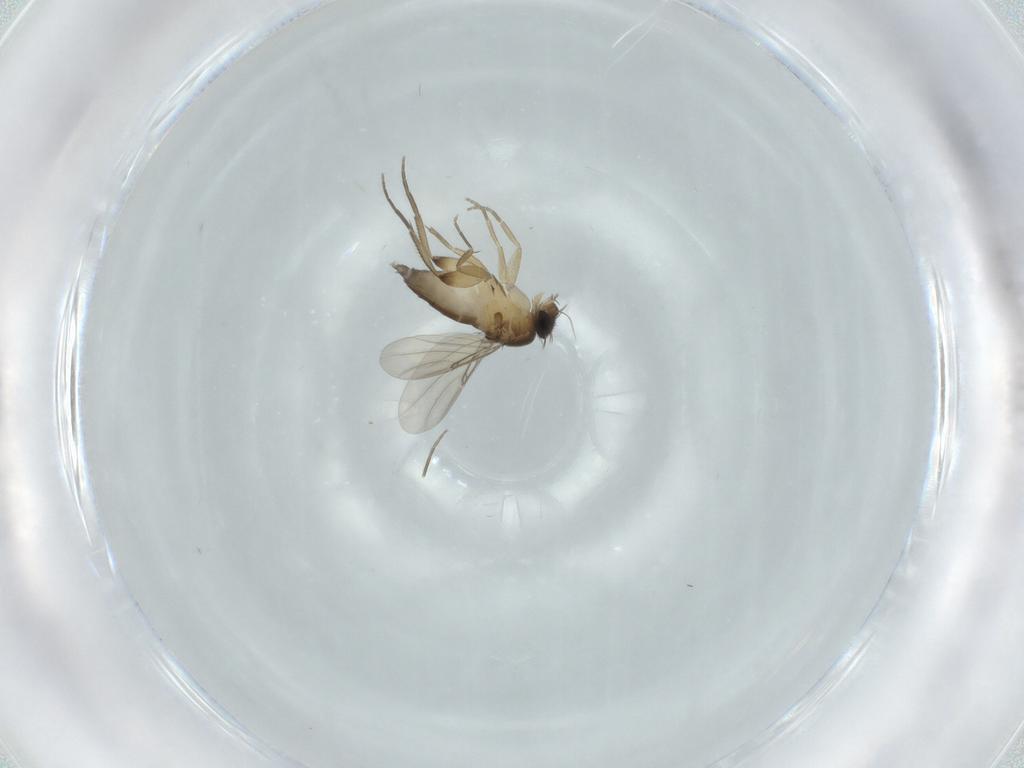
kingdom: Animalia
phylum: Arthropoda
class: Insecta
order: Diptera
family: Phoridae
